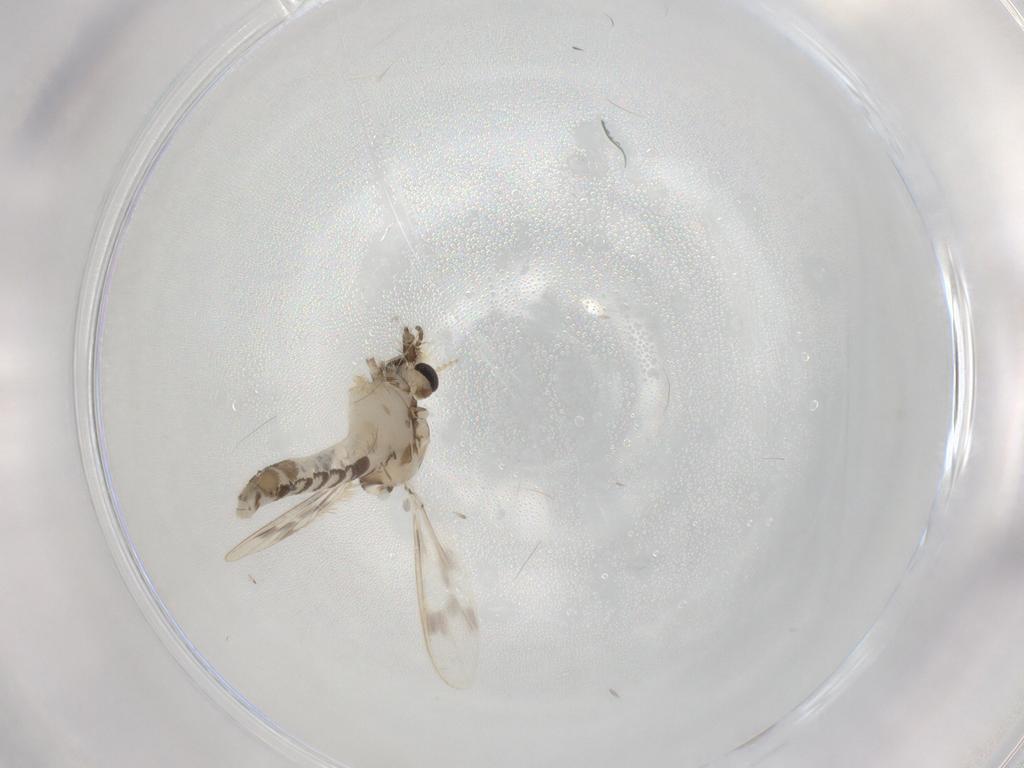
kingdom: Animalia
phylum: Arthropoda
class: Insecta
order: Diptera
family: Corethrellidae
